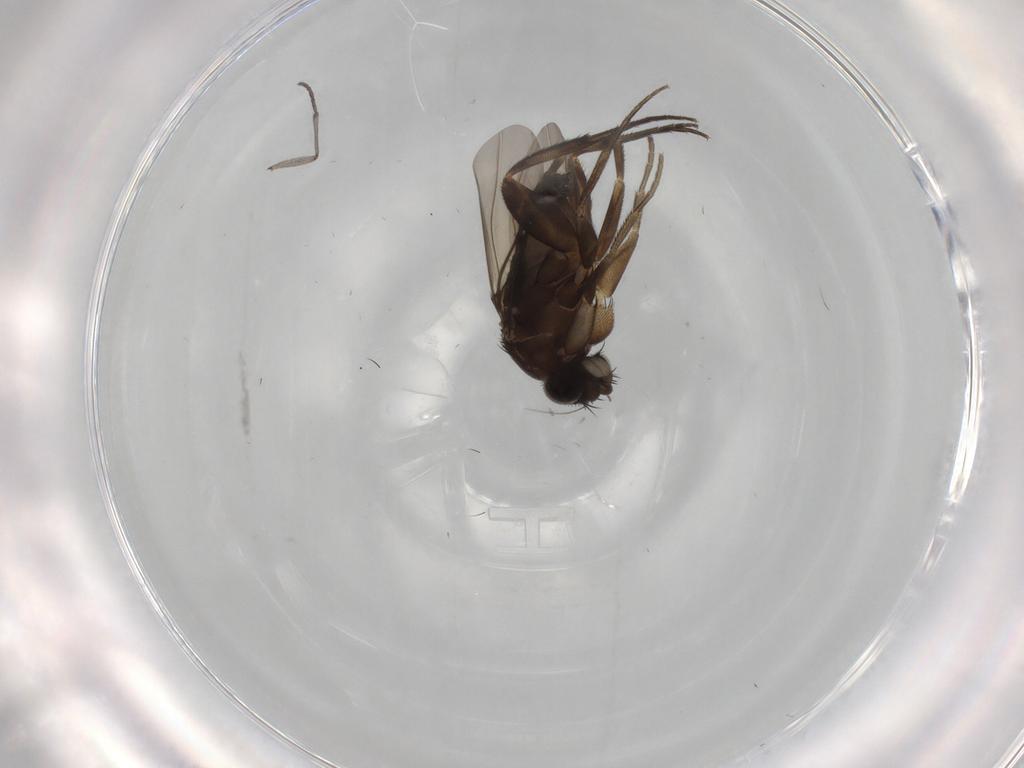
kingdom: Animalia
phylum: Arthropoda
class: Insecta
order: Diptera
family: Phoridae
